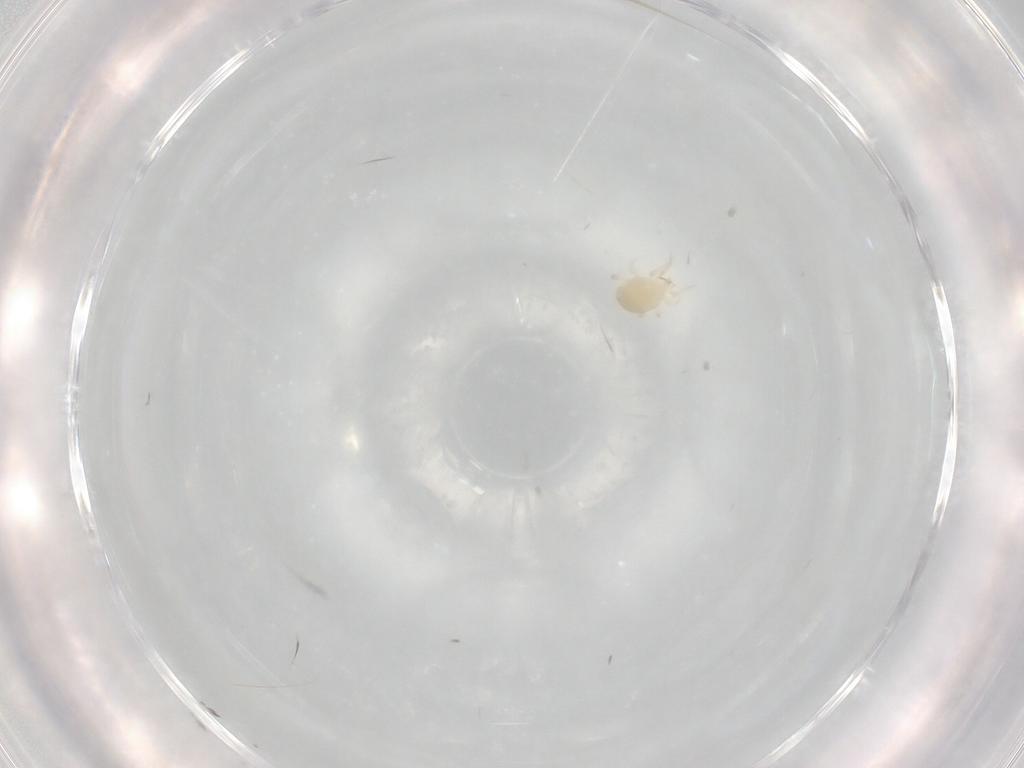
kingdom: Animalia
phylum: Arthropoda
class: Arachnida
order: Mesostigmata
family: Melicharidae
